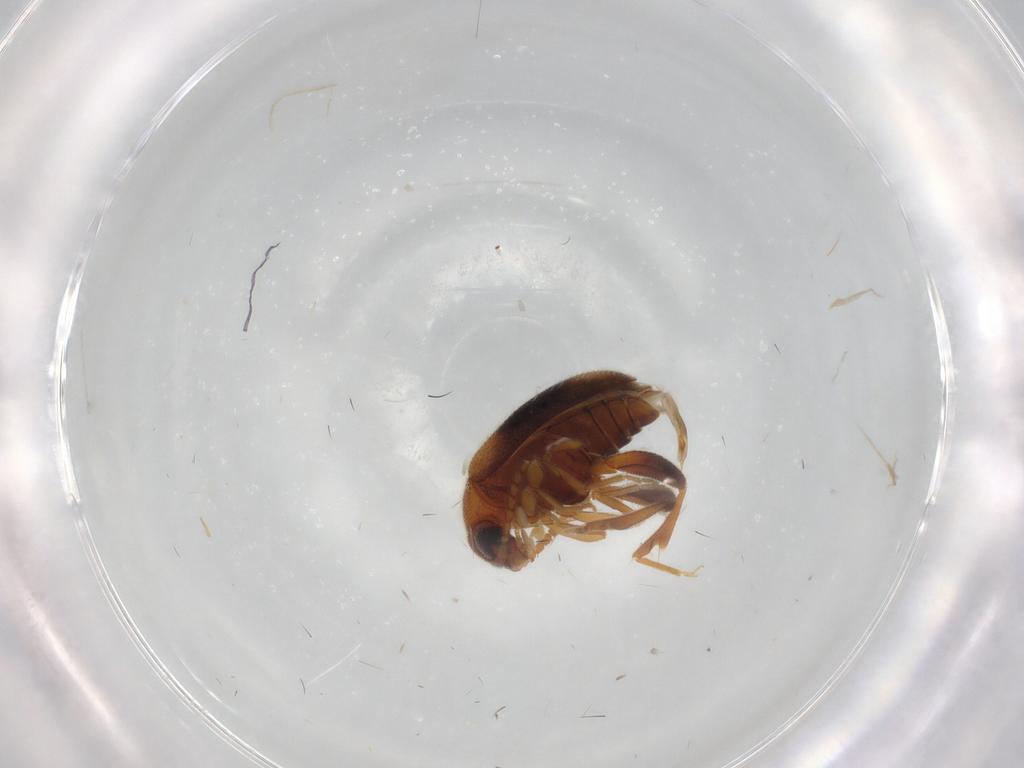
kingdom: Animalia
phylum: Arthropoda
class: Insecta
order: Coleoptera
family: Aderidae
